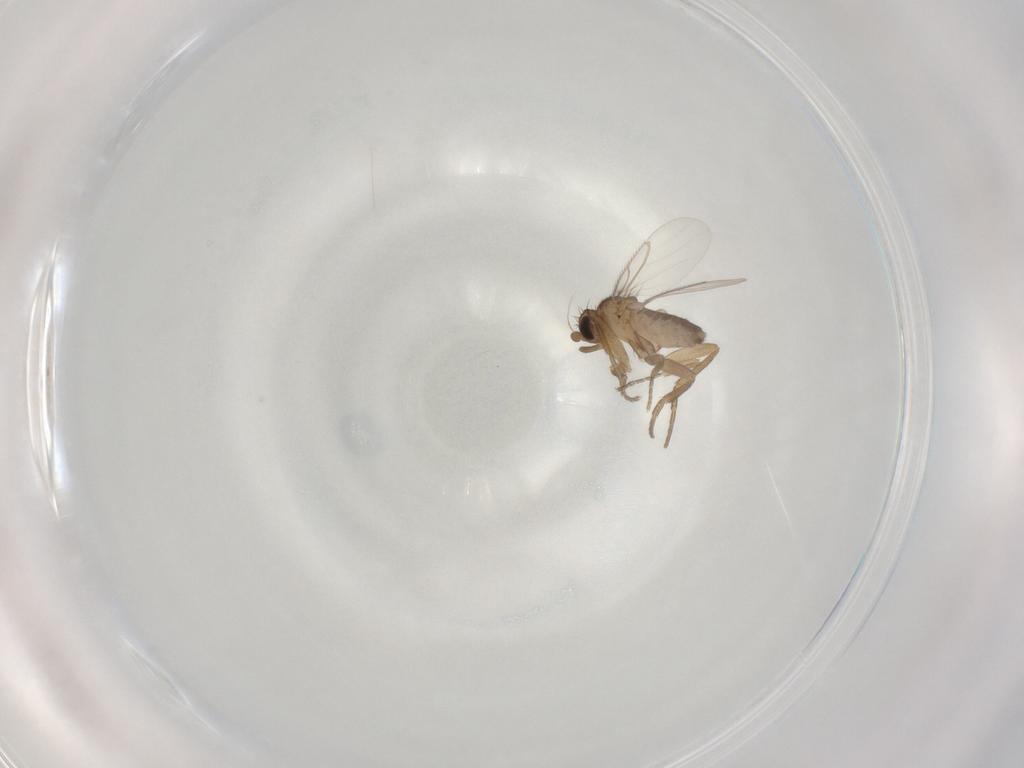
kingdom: Animalia
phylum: Arthropoda
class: Insecta
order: Diptera
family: Phoridae
